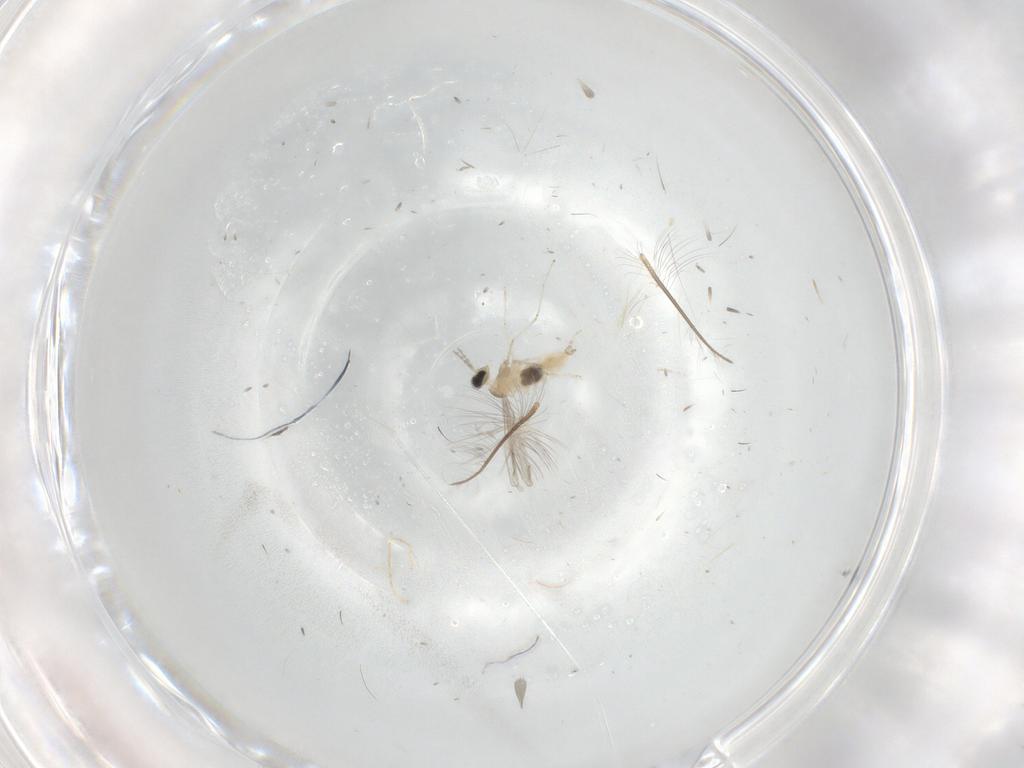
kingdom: Animalia
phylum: Arthropoda
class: Insecta
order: Diptera
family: Cecidomyiidae
